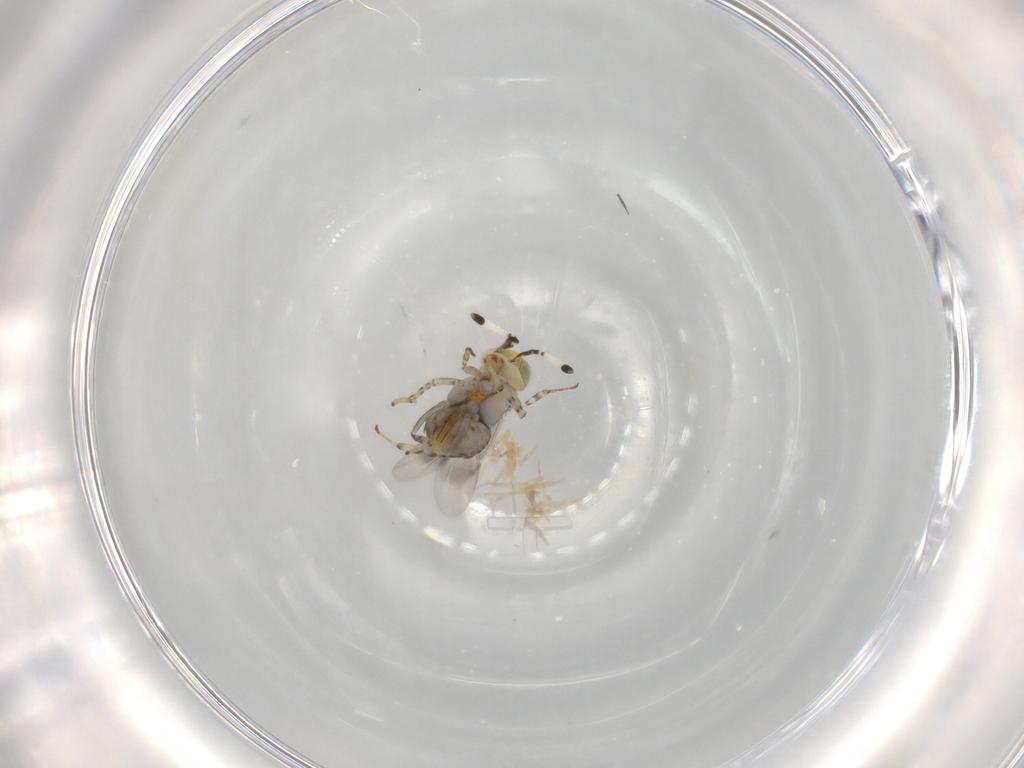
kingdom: Animalia
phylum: Arthropoda
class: Insecta
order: Hymenoptera
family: Encyrtidae
